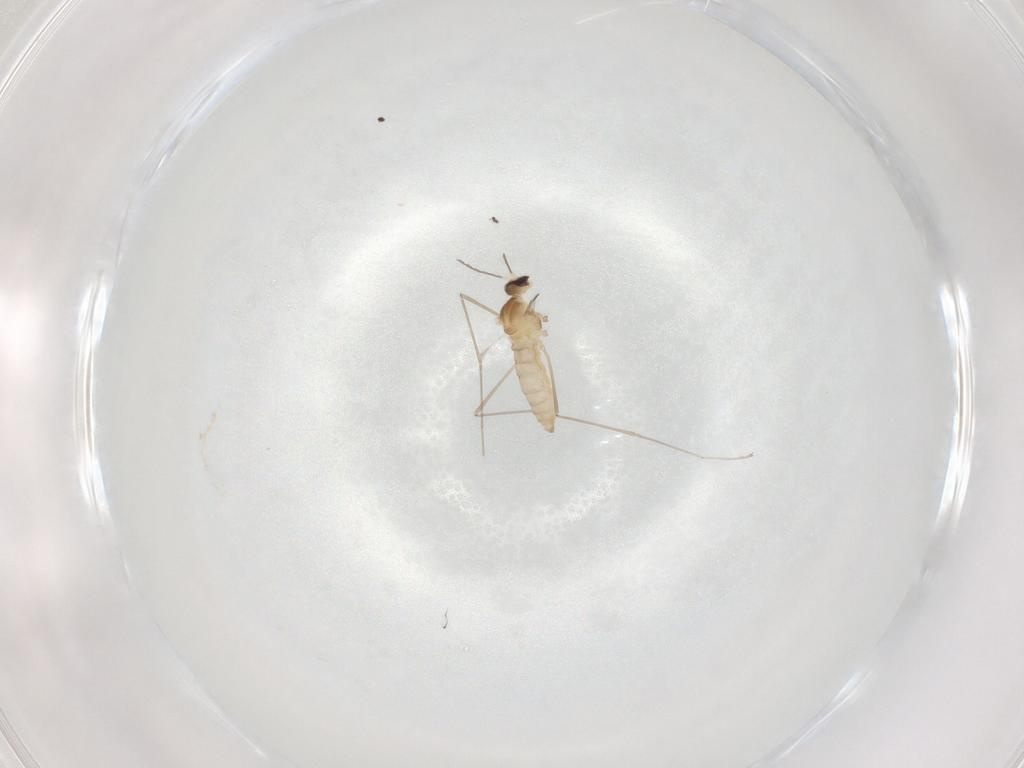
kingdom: Animalia
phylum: Arthropoda
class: Insecta
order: Diptera
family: Cecidomyiidae
